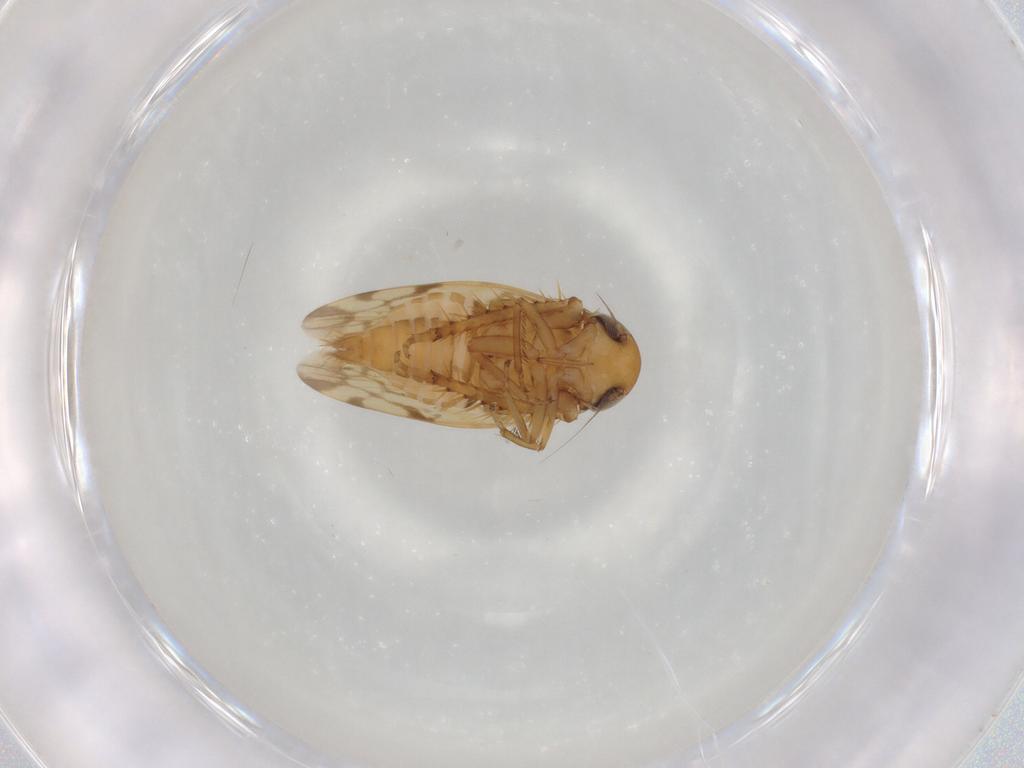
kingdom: Animalia
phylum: Arthropoda
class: Insecta
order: Hemiptera
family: Cicadellidae
